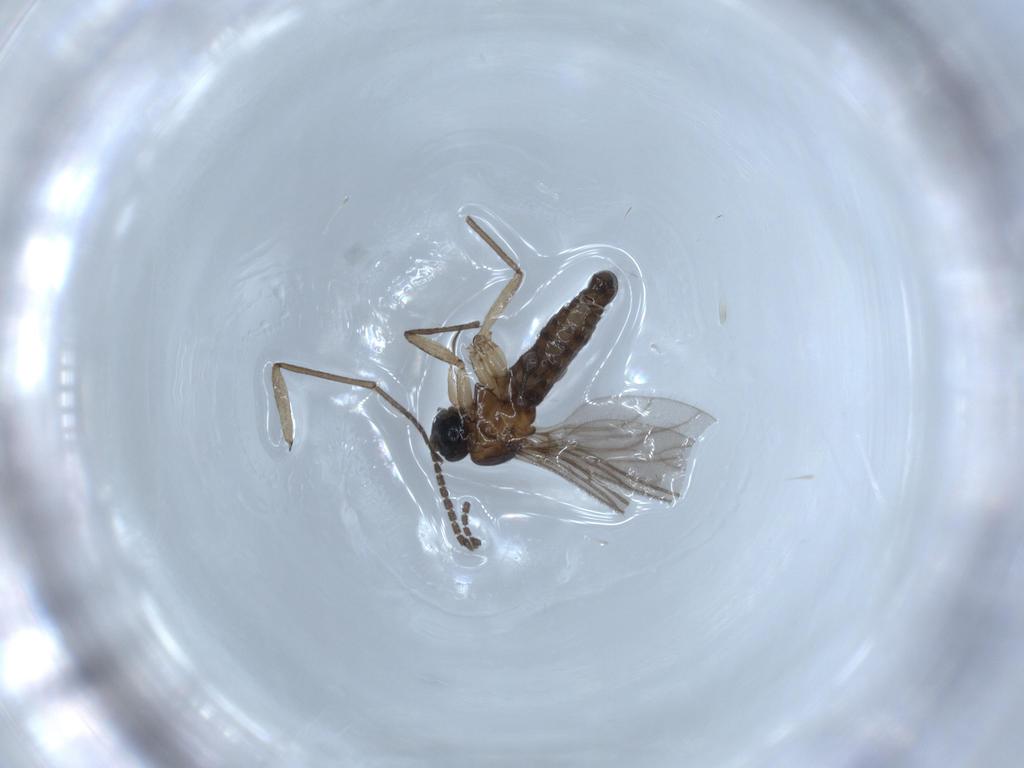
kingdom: Animalia
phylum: Arthropoda
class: Insecta
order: Diptera
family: Sciaridae
